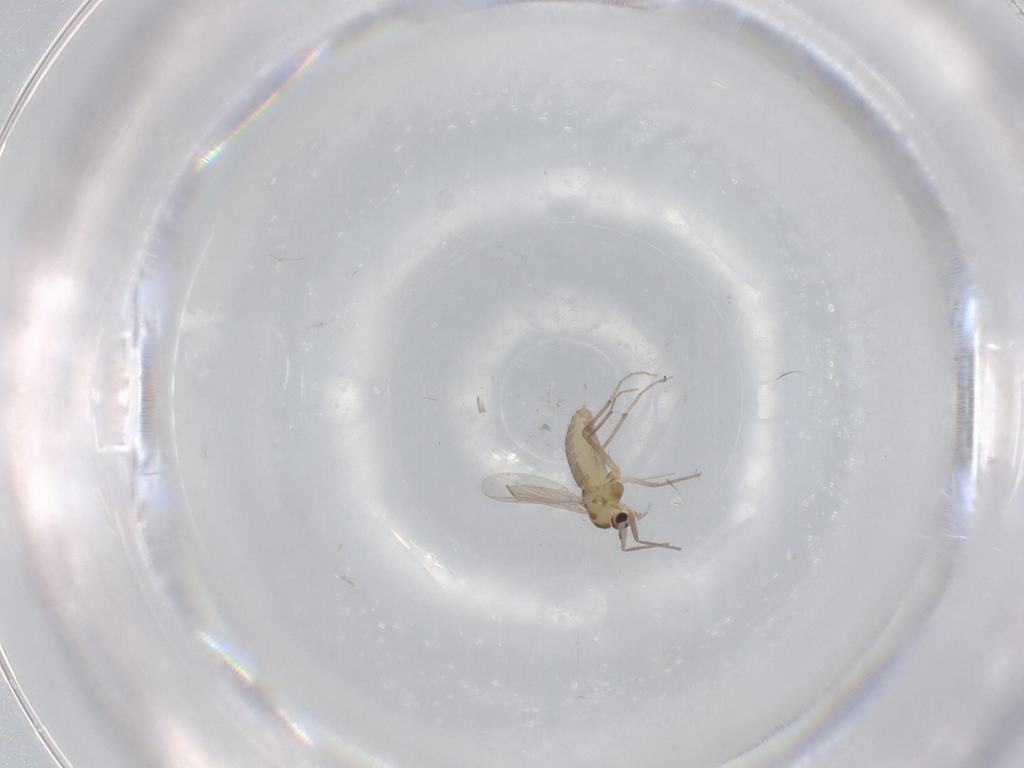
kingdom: Animalia
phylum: Arthropoda
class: Insecta
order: Diptera
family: Chironomidae
